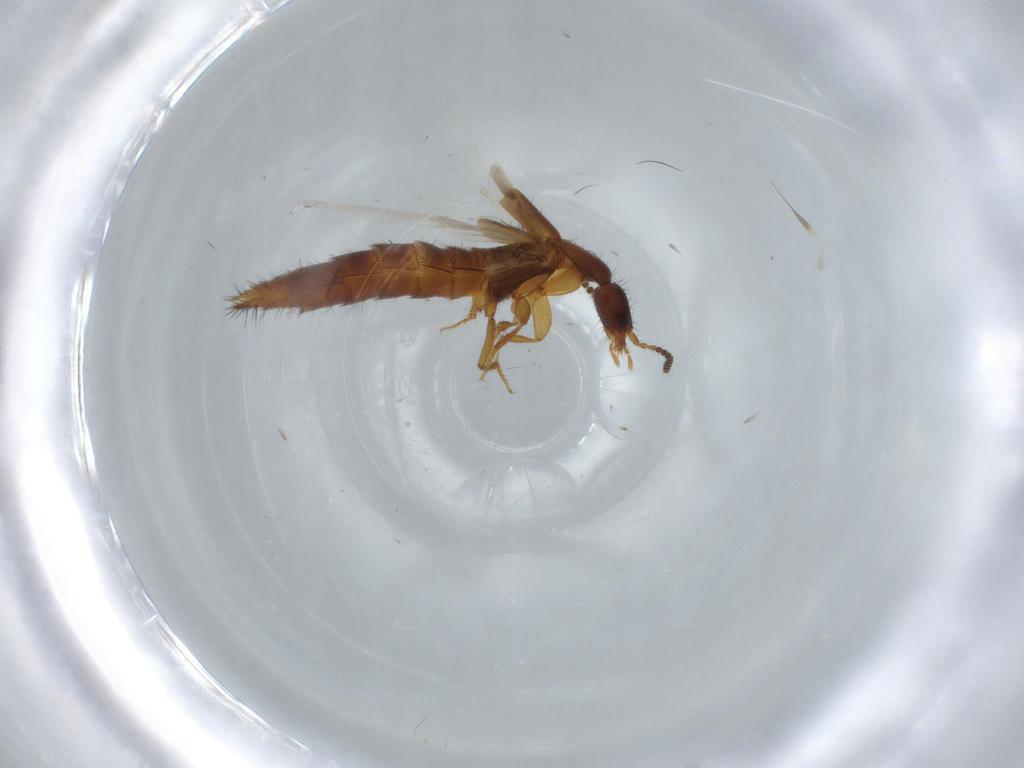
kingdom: Animalia
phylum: Arthropoda
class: Insecta
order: Coleoptera
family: Staphylinidae
